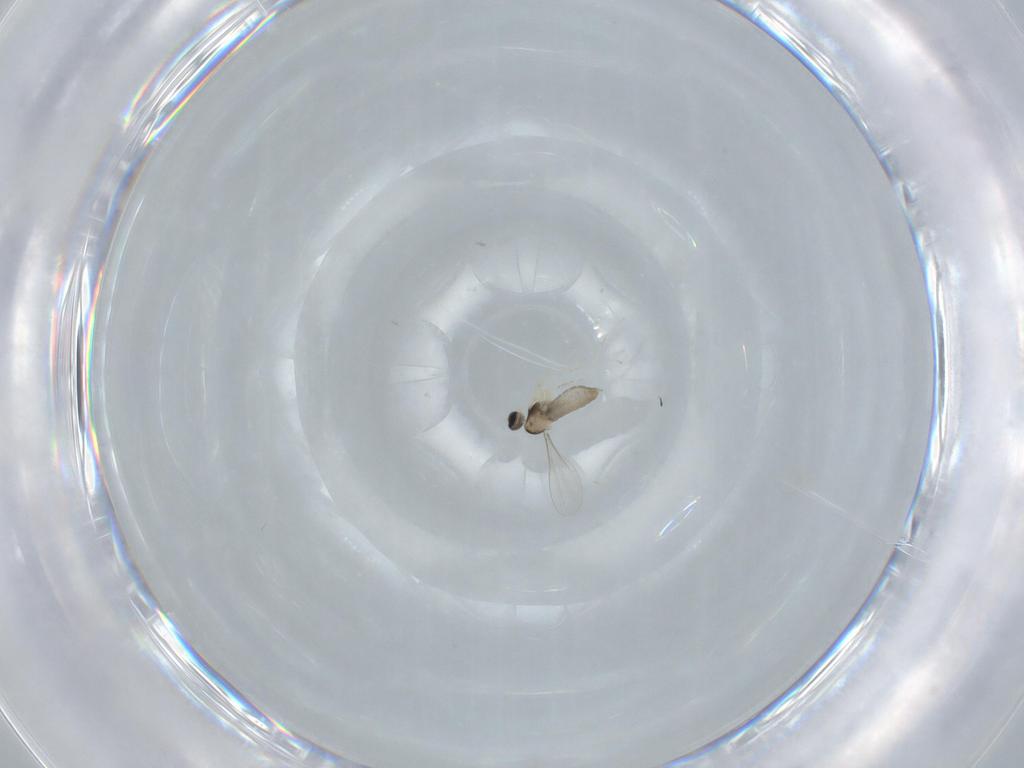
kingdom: Animalia
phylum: Arthropoda
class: Insecta
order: Diptera
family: Cecidomyiidae
